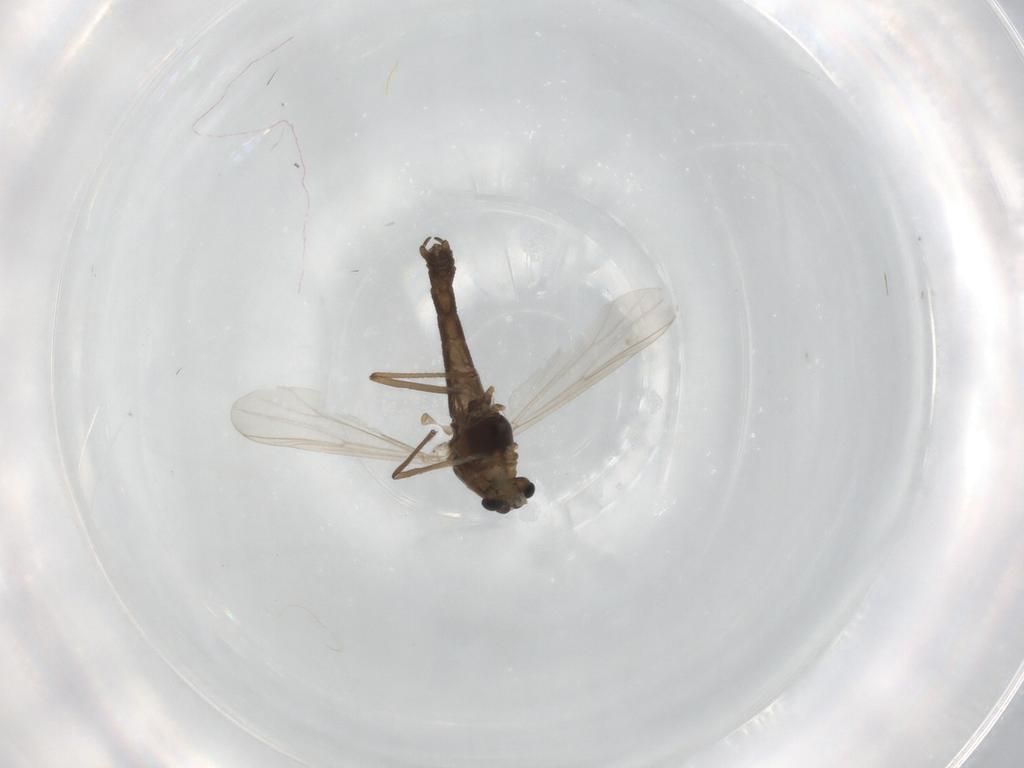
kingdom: Animalia
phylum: Arthropoda
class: Insecta
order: Diptera
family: Chironomidae
